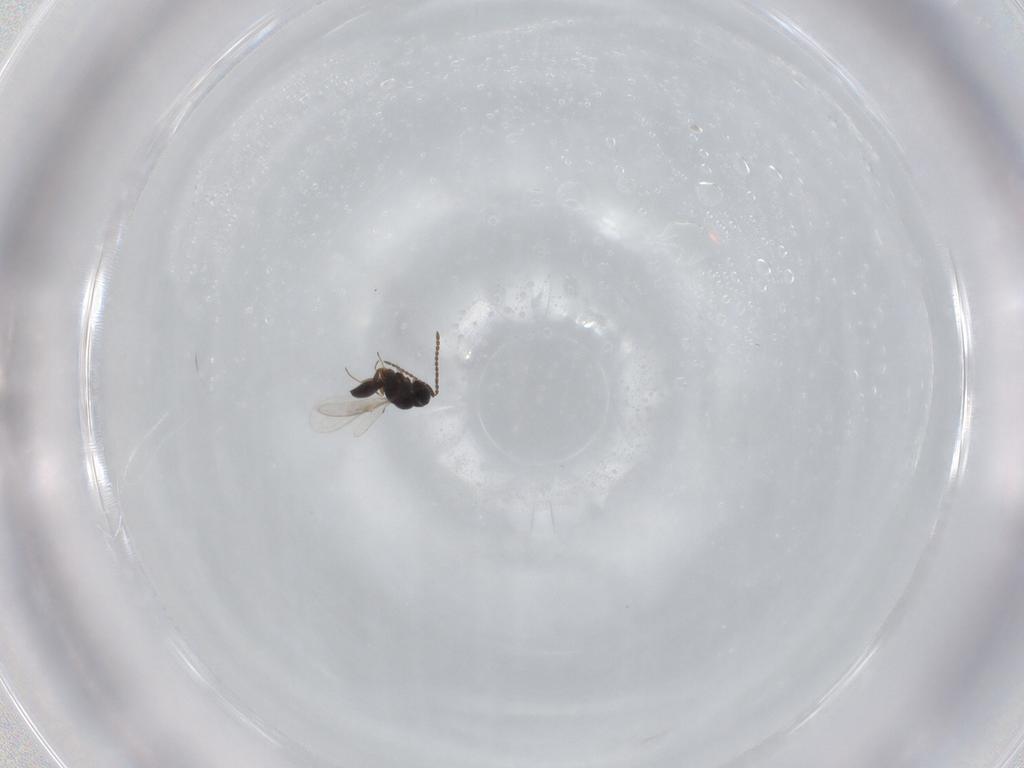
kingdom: Animalia
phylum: Arthropoda
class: Insecta
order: Hymenoptera
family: Scelionidae
